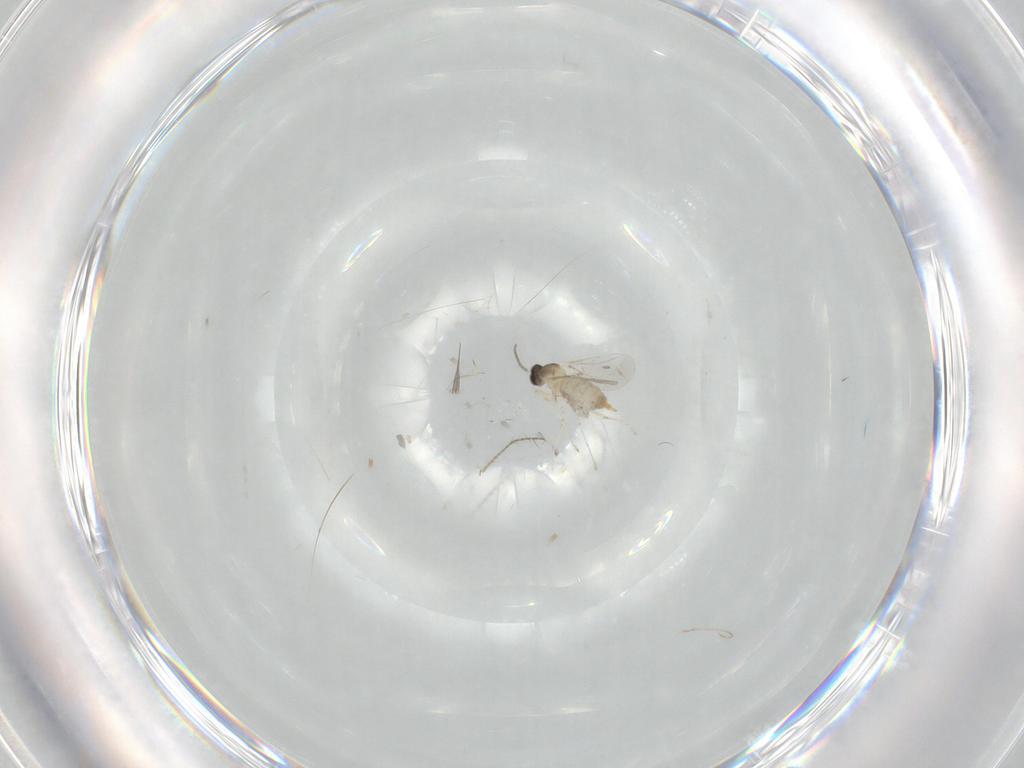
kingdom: Animalia
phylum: Arthropoda
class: Insecta
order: Diptera
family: Cecidomyiidae
